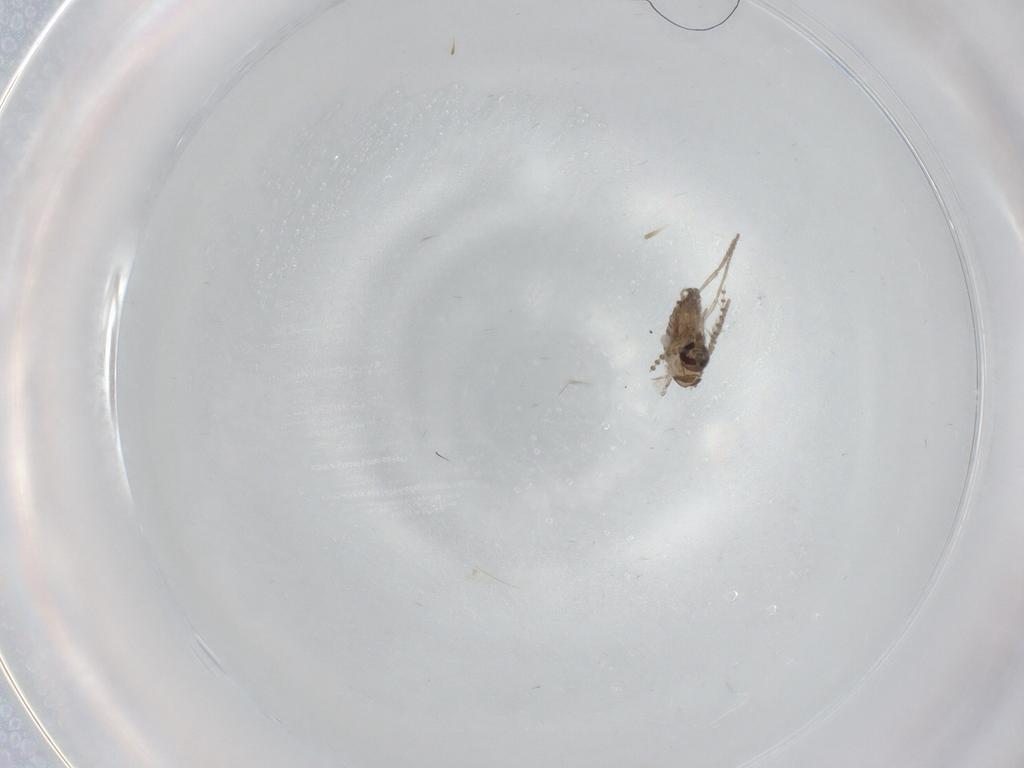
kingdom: Animalia
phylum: Arthropoda
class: Insecta
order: Diptera
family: Psychodidae
